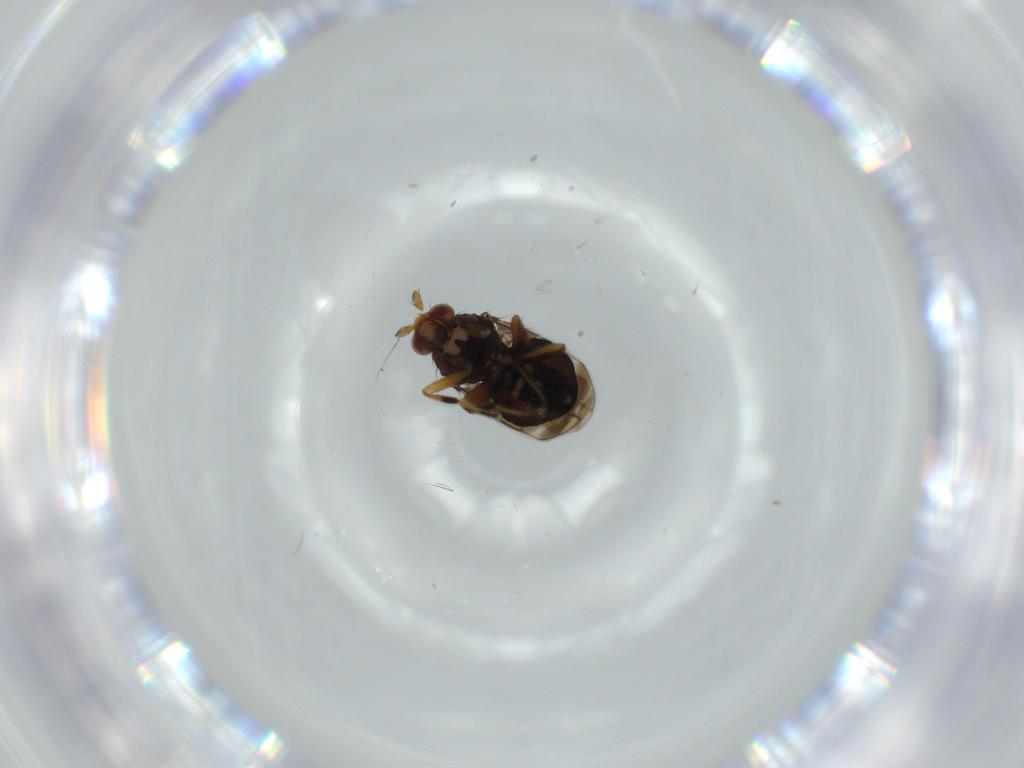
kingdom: Animalia
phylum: Arthropoda
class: Insecta
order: Diptera
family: Sphaeroceridae
